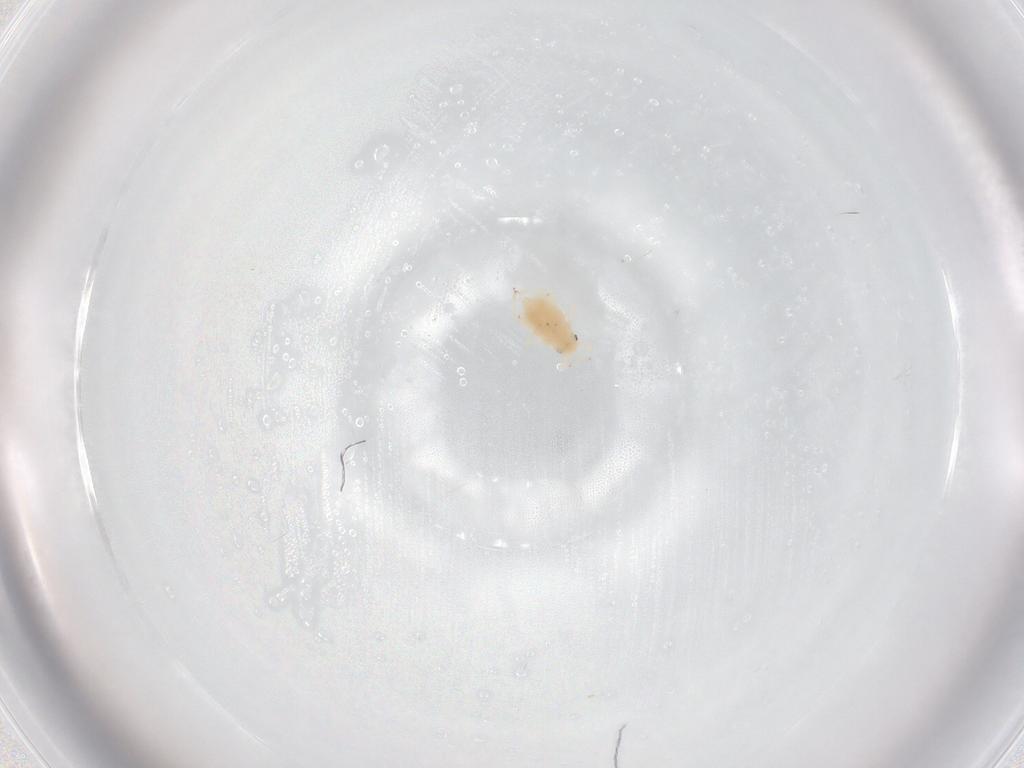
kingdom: Animalia
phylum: Arthropoda
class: Insecta
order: Hemiptera
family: Aphididae
